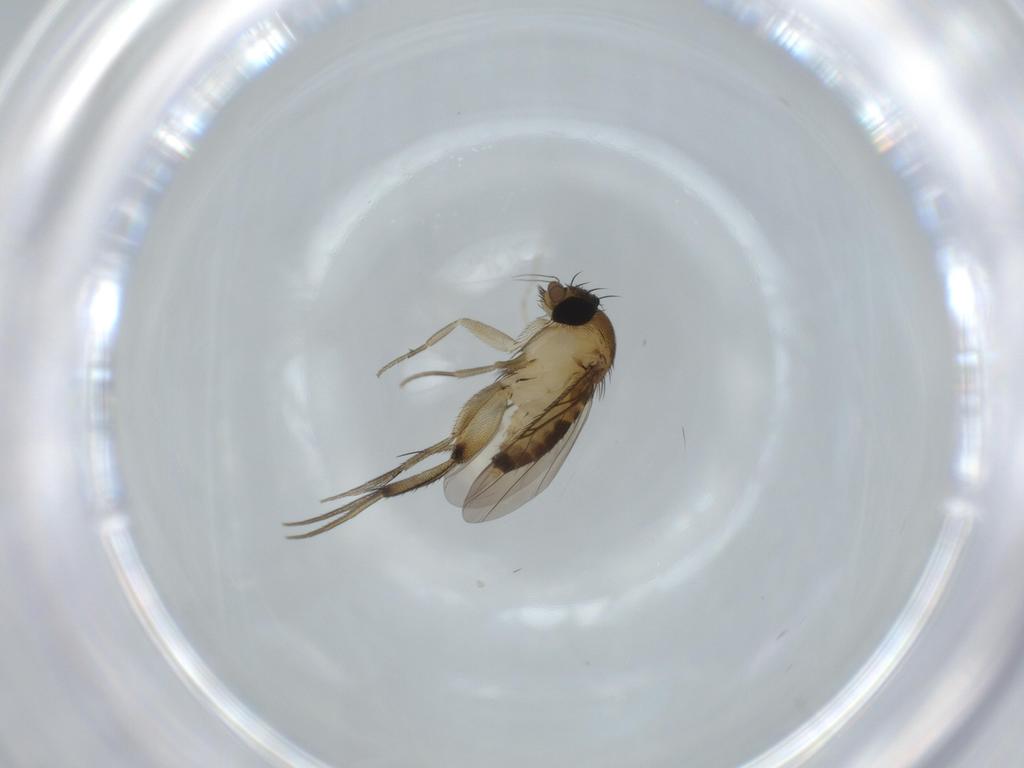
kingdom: Animalia
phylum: Arthropoda
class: Insecta
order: Diptera
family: Phoridae
